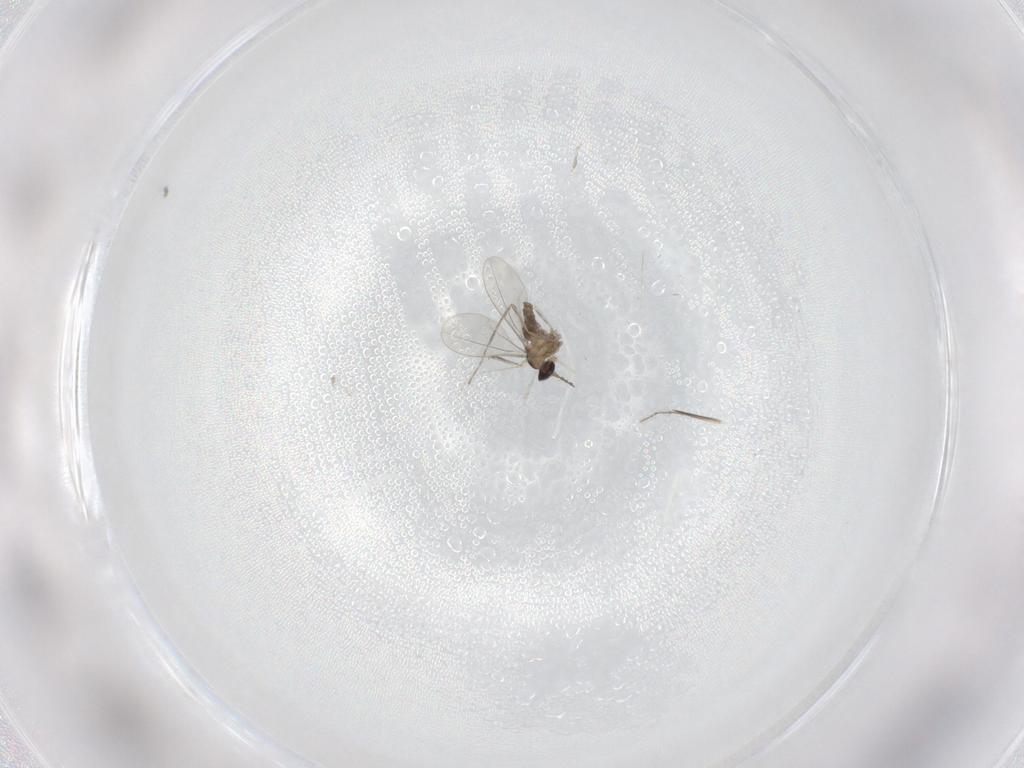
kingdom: Animalia
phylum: Arthropoda
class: Insecta
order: Diptera
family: Cecidomyiidae
